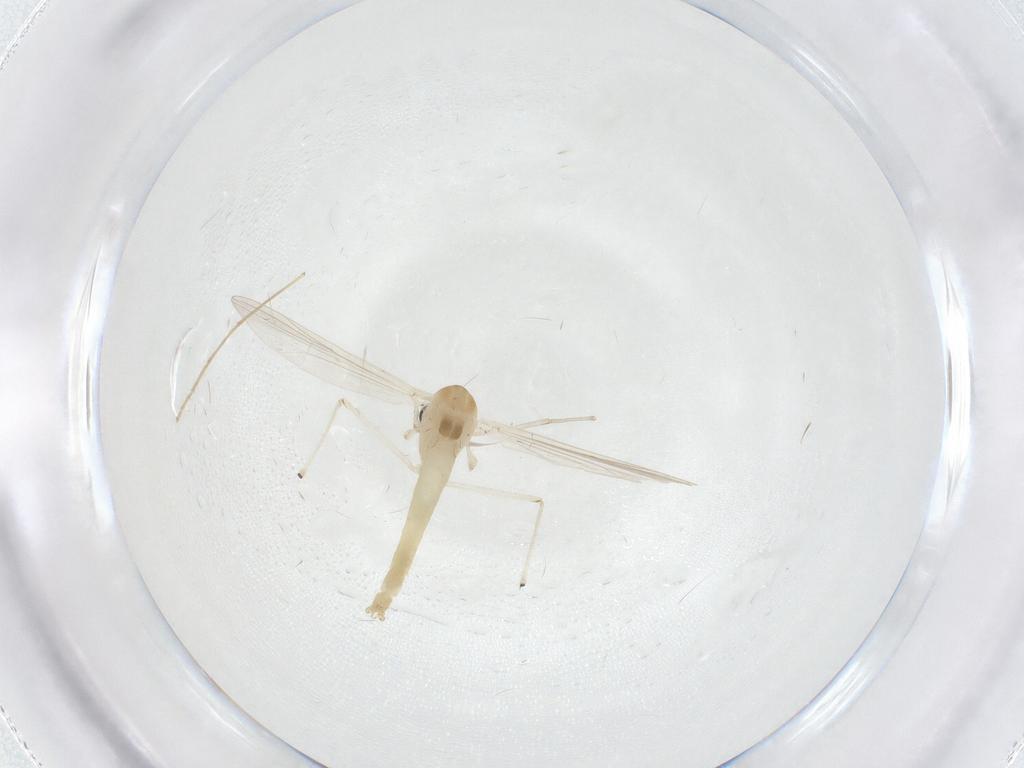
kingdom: Animalia
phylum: Arthropoda
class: Insecta
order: Diptera
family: Chironomidae
